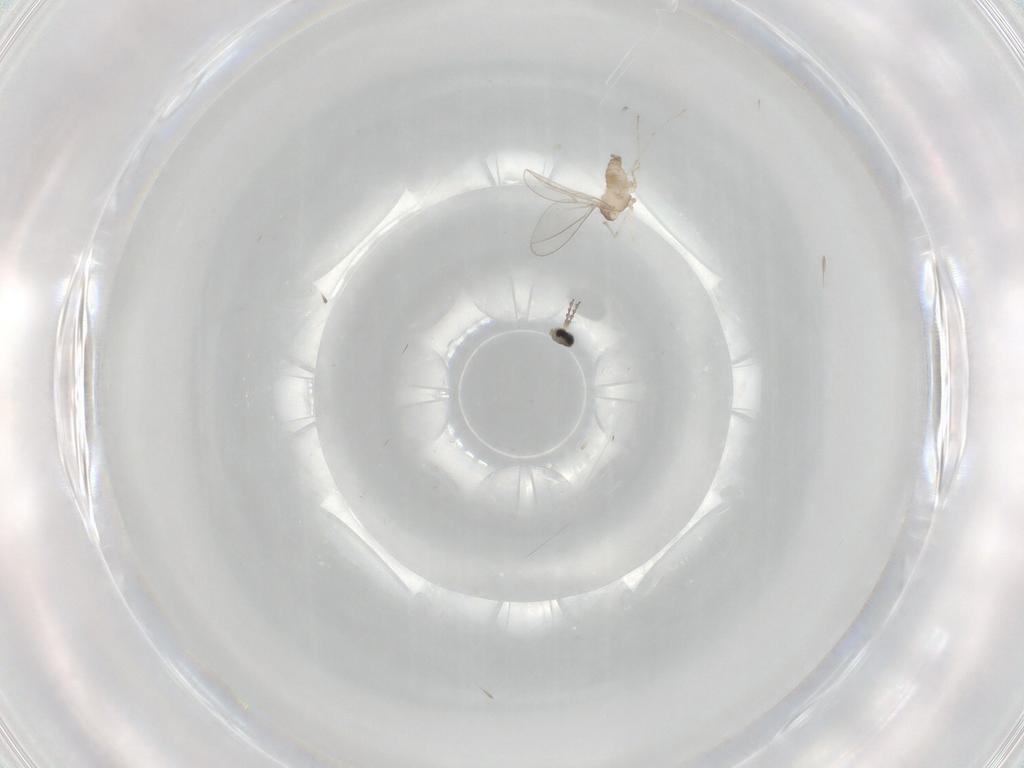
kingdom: Animalia
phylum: Arthropoda
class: Insecta
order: Diptera
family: Cecidomyiidae
